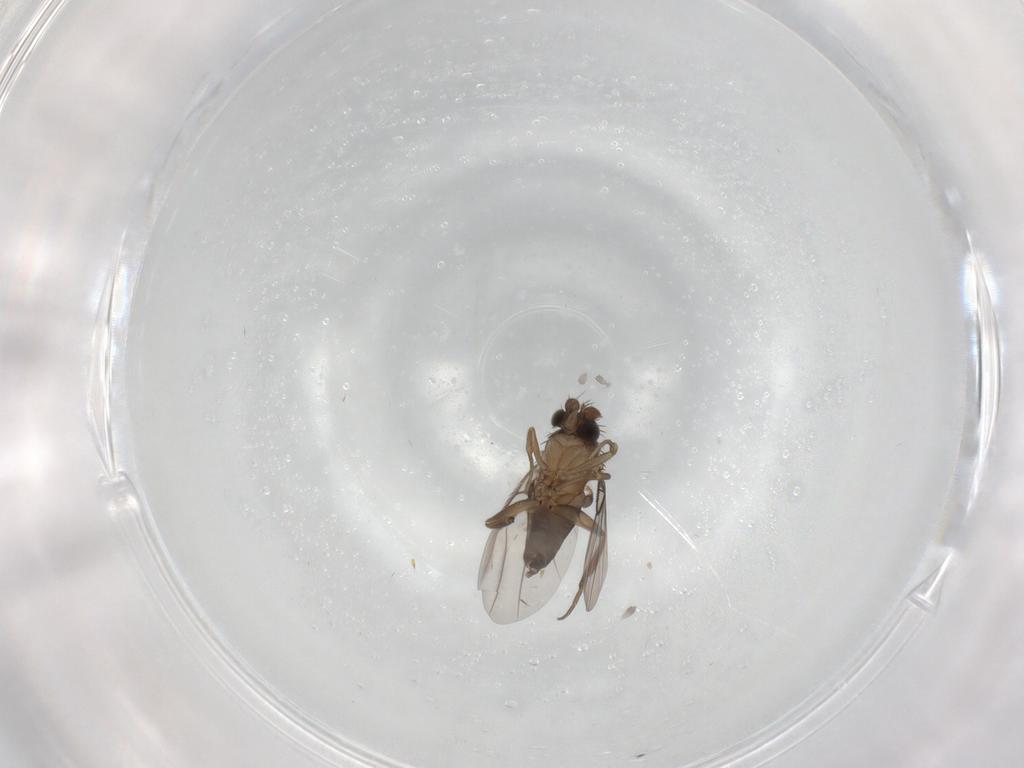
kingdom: Animalia
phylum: Arthropoda
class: Insecta
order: Diptera
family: Cecidomyiidae
